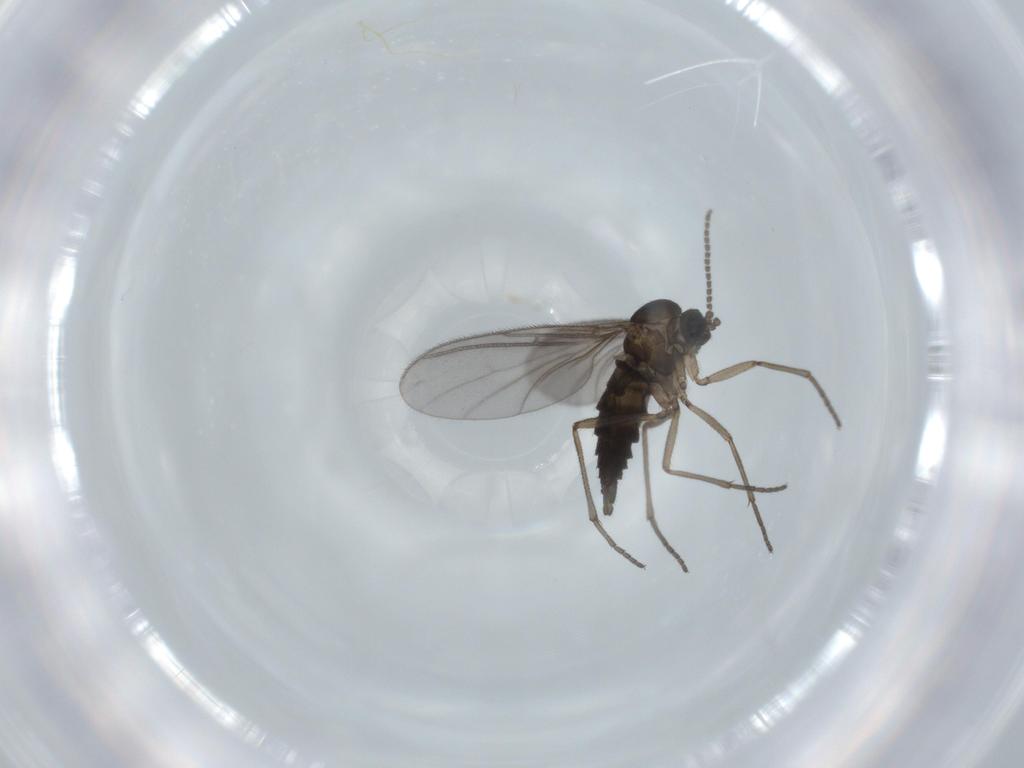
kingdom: Animalia
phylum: Arthropoda
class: Insecta
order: Diptera
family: Sciaridae
